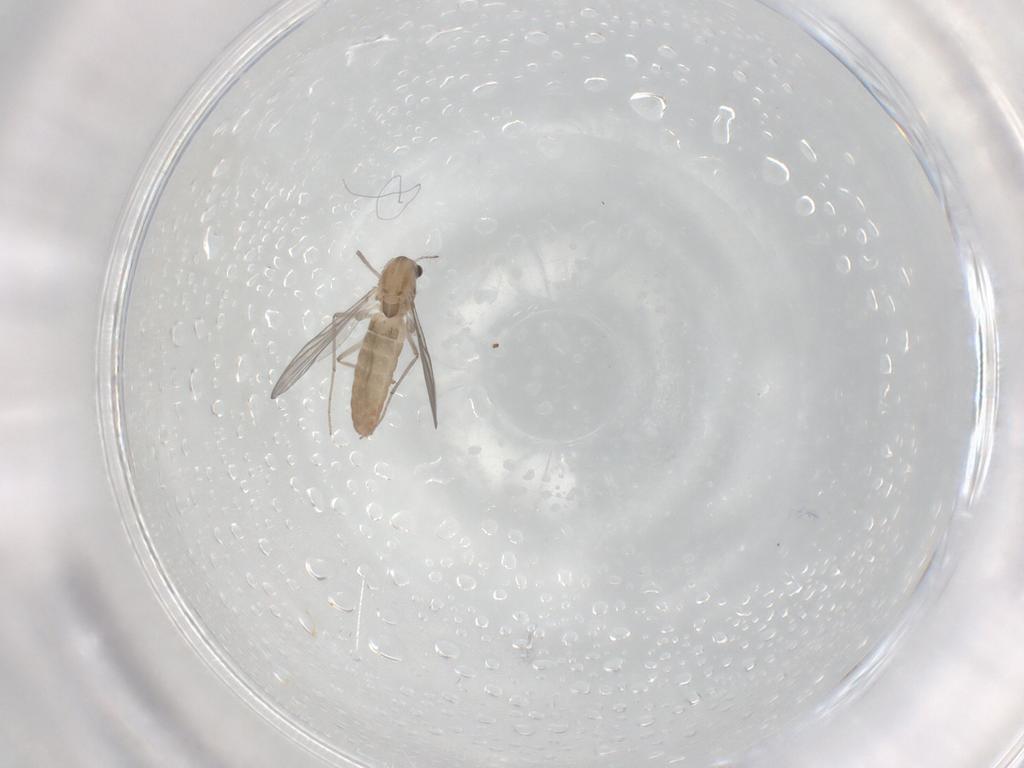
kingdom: Animalia
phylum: Arthropoda
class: Insecta
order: Diptera
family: Chironomidae
